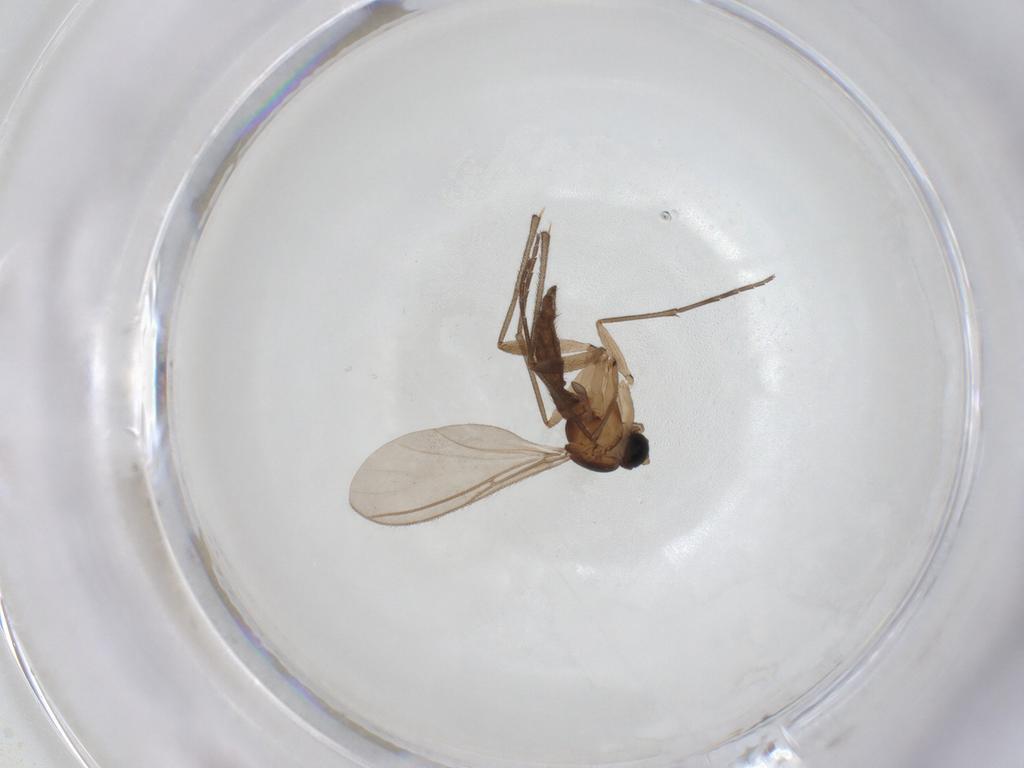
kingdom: Animalia
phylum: Arthropoda
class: Insecta
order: Diptera
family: Sciaridae
